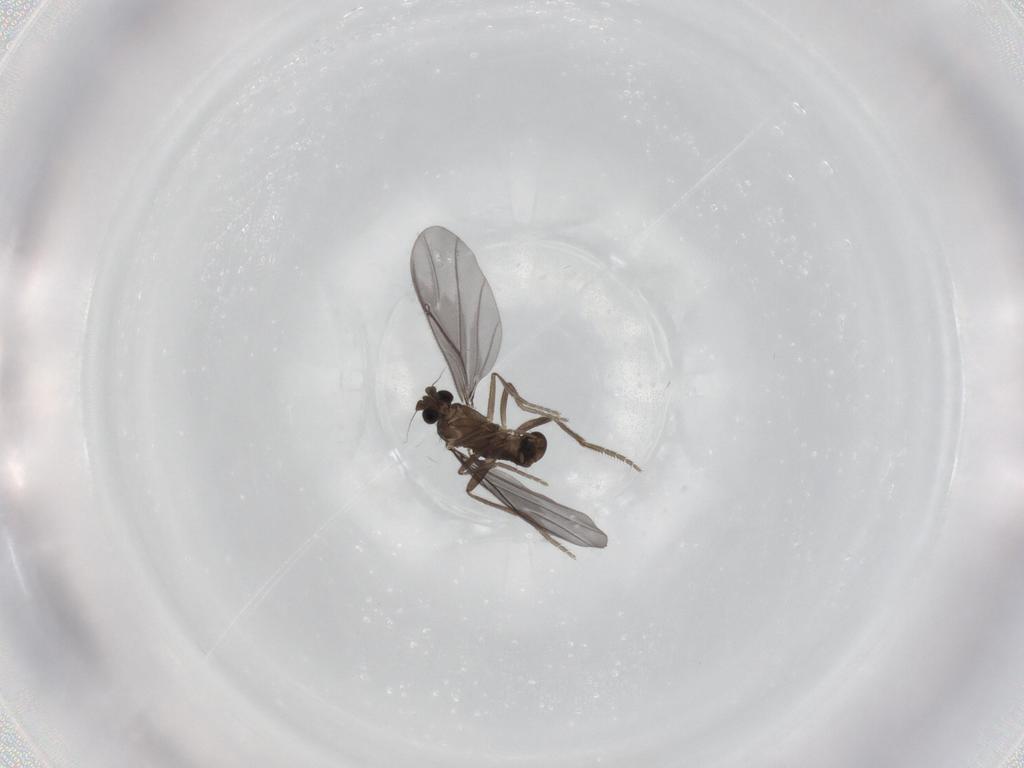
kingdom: Animalia
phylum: Arthropoda
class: Insecta
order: Diptera
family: Phoridae
